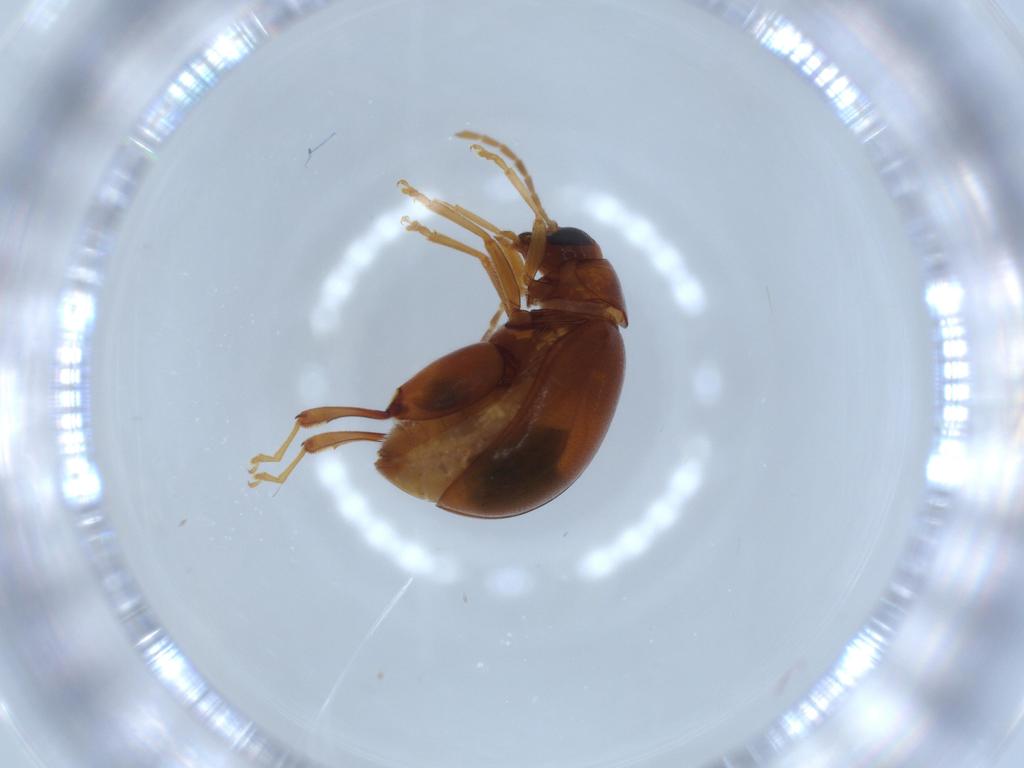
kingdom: Animalia
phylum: Arthropoda
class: Insecta
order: Coleoptera
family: Chrysomelidae
